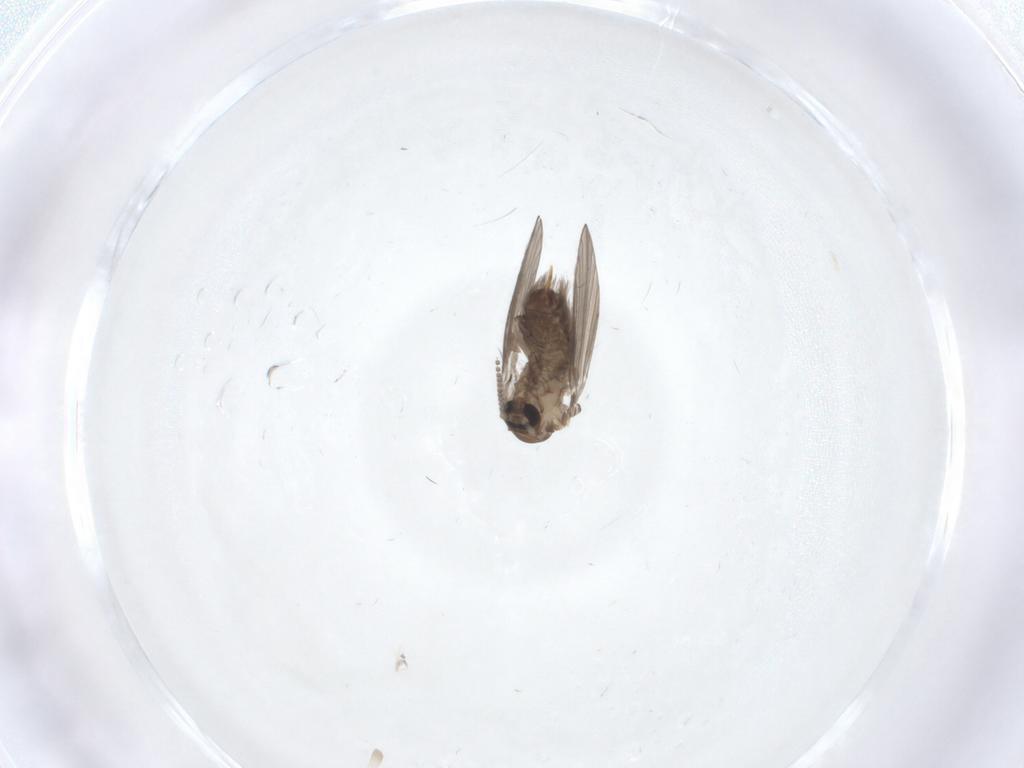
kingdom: Animalia
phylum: Arthropoda
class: Insecta
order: Diptera
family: Psychodidae
